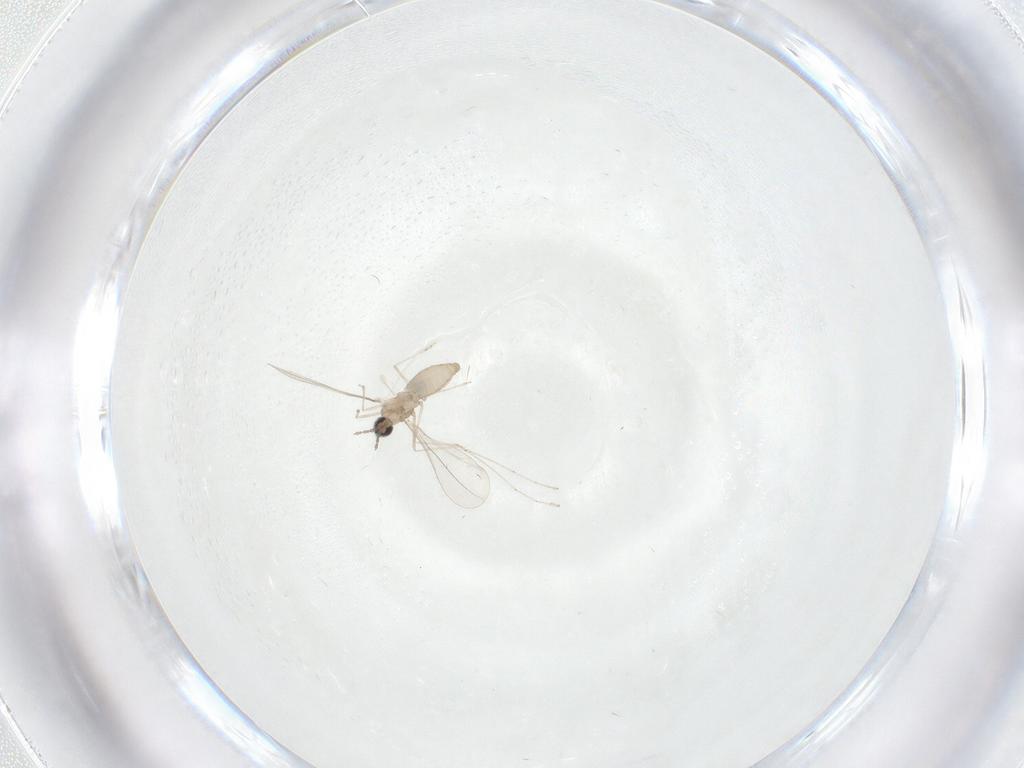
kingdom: Animalia
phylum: Arthropoda
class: Insecta
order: Diptera
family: Cecidomyiidae
